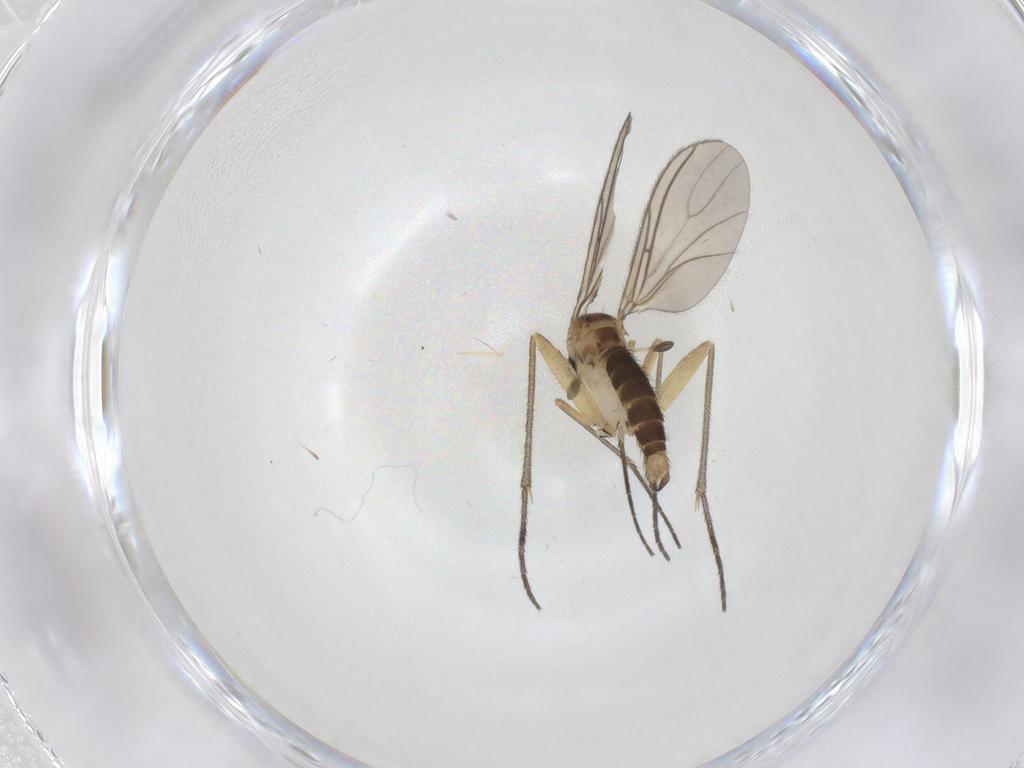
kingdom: Animalia
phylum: Arthropoda
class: Insecta
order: Diptera
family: Sciaridae
